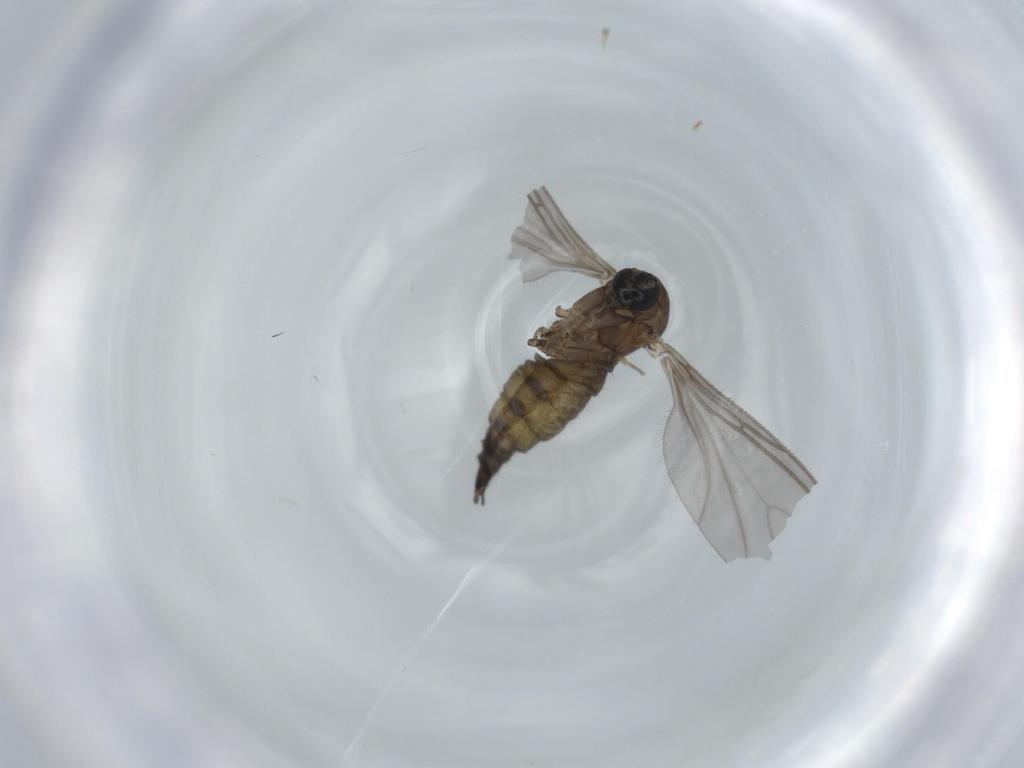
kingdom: Animalia
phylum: Arthropoda
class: Insecta
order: Diptera
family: Sciaridae
